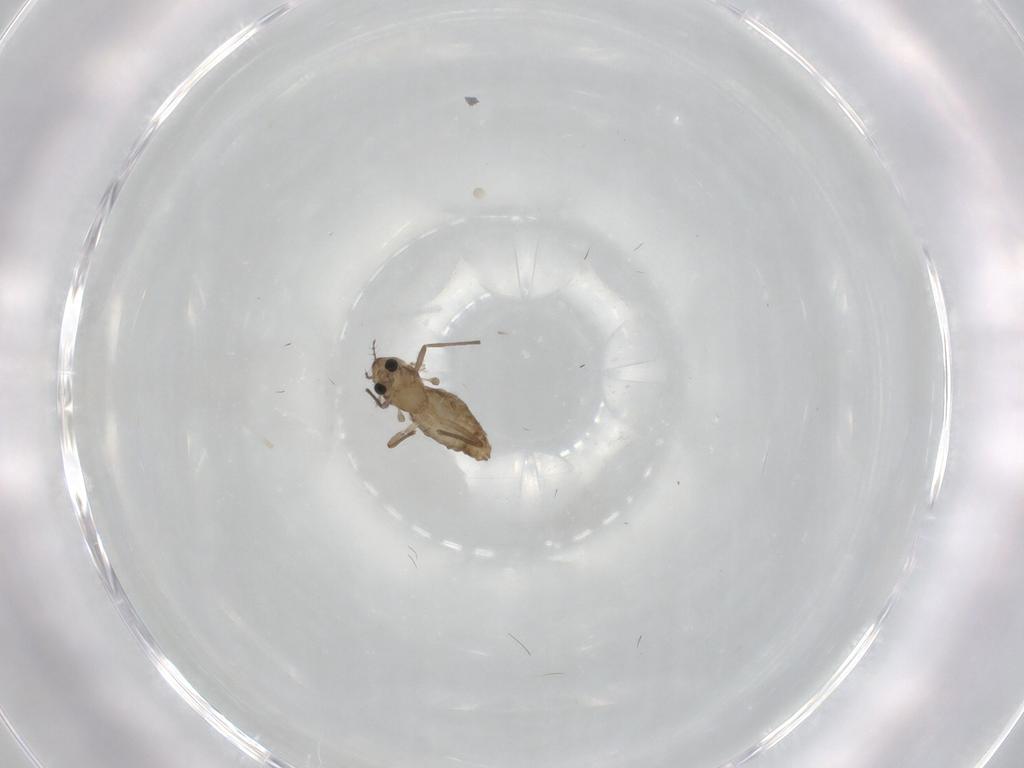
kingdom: Animalia
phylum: Arthropoda
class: Insecta
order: Diptera
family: Chironomidae
